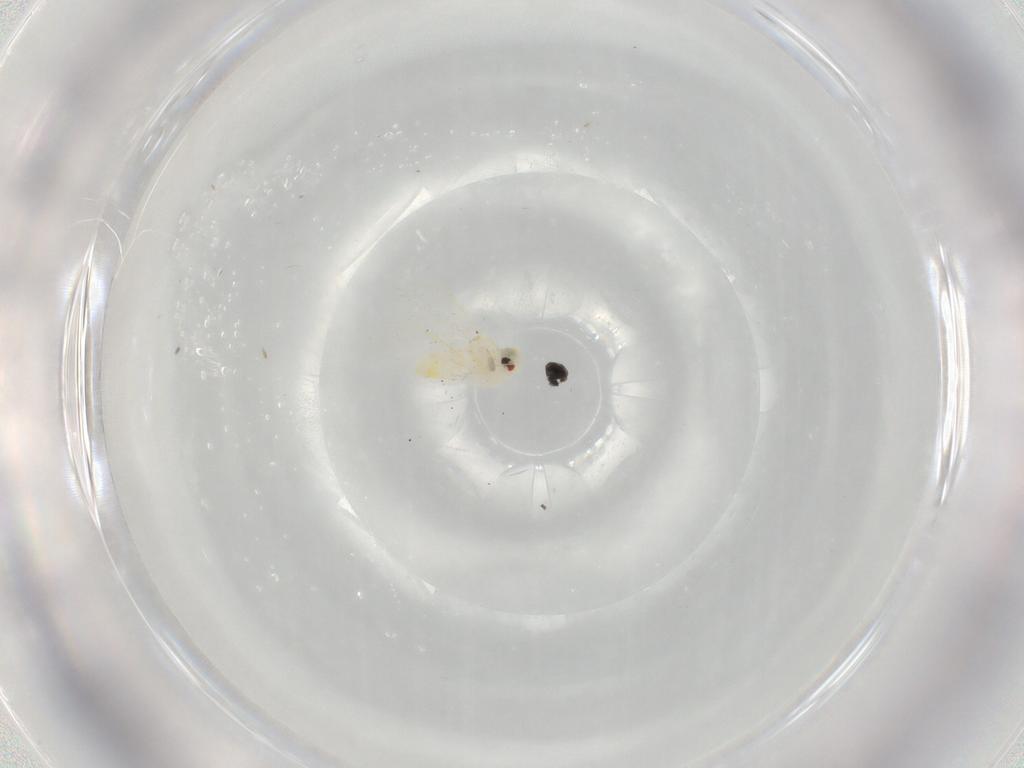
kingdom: Animalia
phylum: Arthropoda
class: Insecta
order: Hemiptera
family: Aleyrodidae
